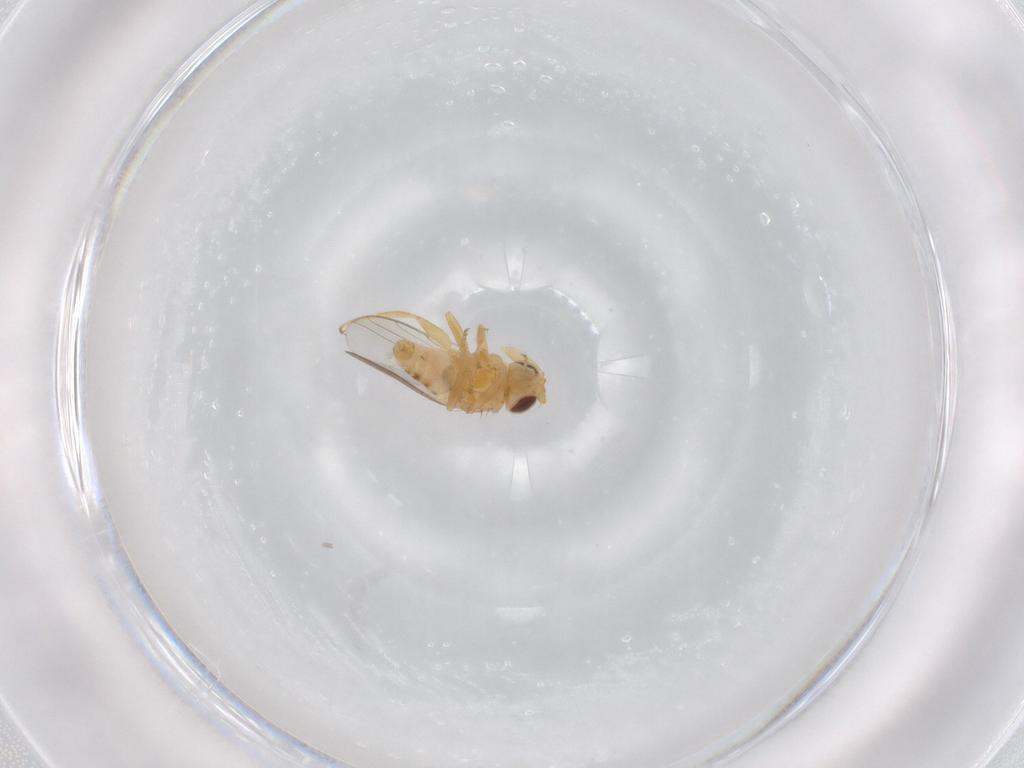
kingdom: Animalia
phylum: Arthropoda
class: Insecta
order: Diptera
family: Chloropidae
